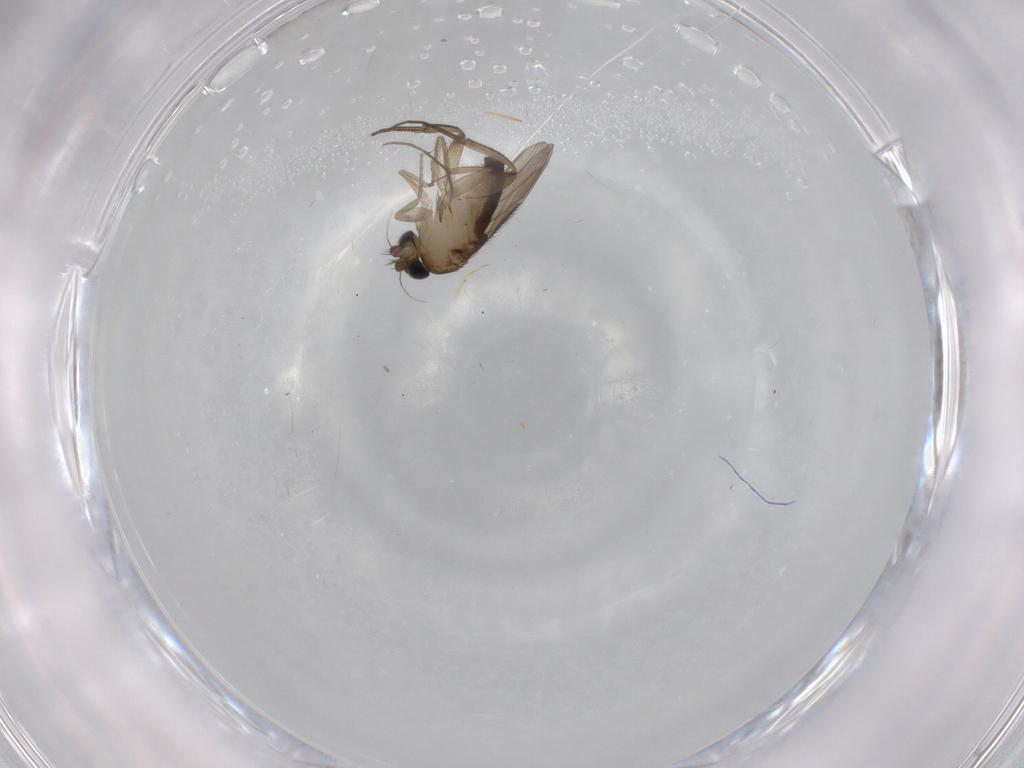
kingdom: Animalia
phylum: Arthropoda
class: Insecta
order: Diptera
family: Phoridae
